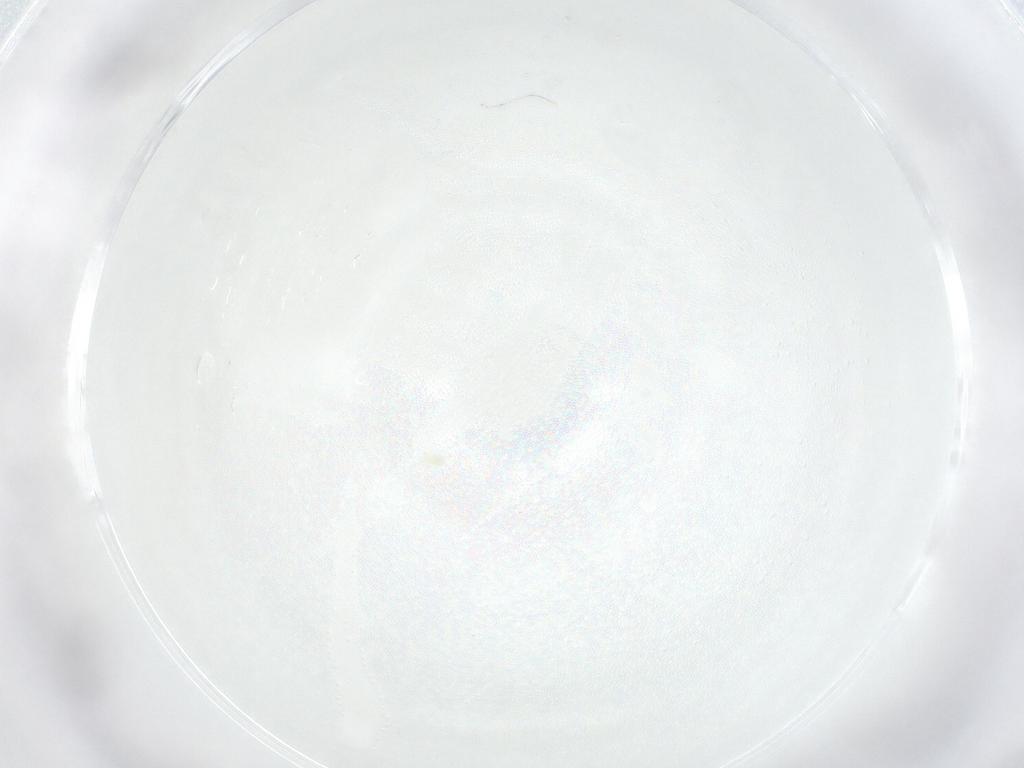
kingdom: Animalia
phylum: Arthropoda
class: Arachnida
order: Sarcoptiformes
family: Nanorchestidae
